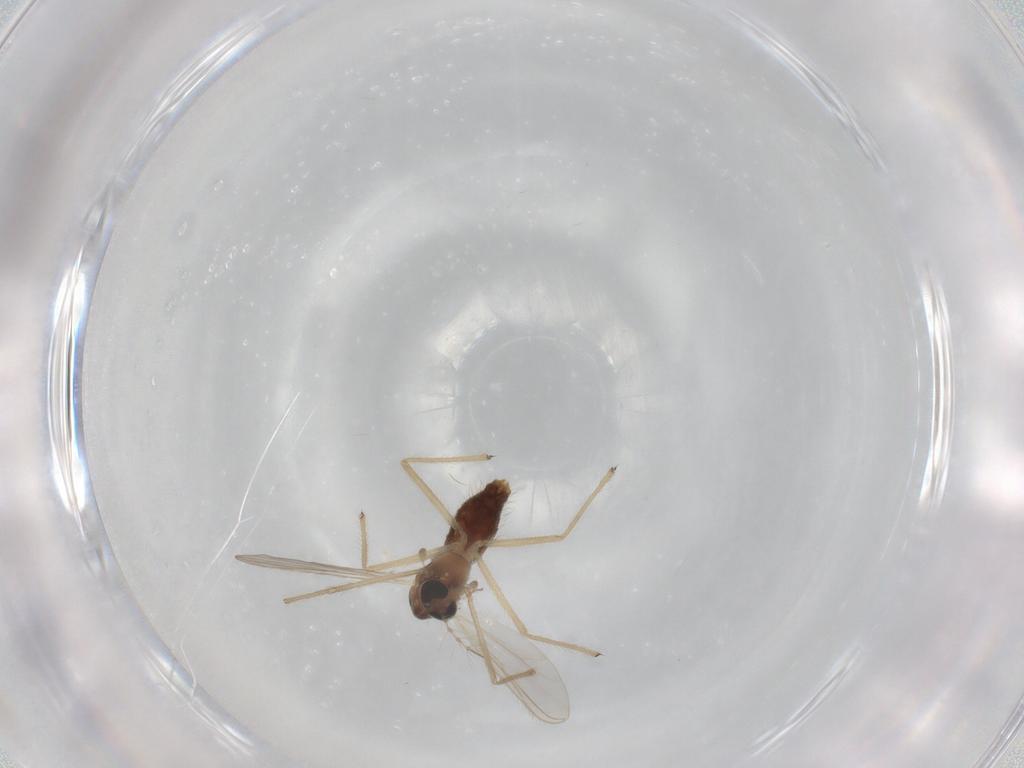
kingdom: Animalia
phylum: Arthropoda
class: Insecta
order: Diptera
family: Chironomidae
